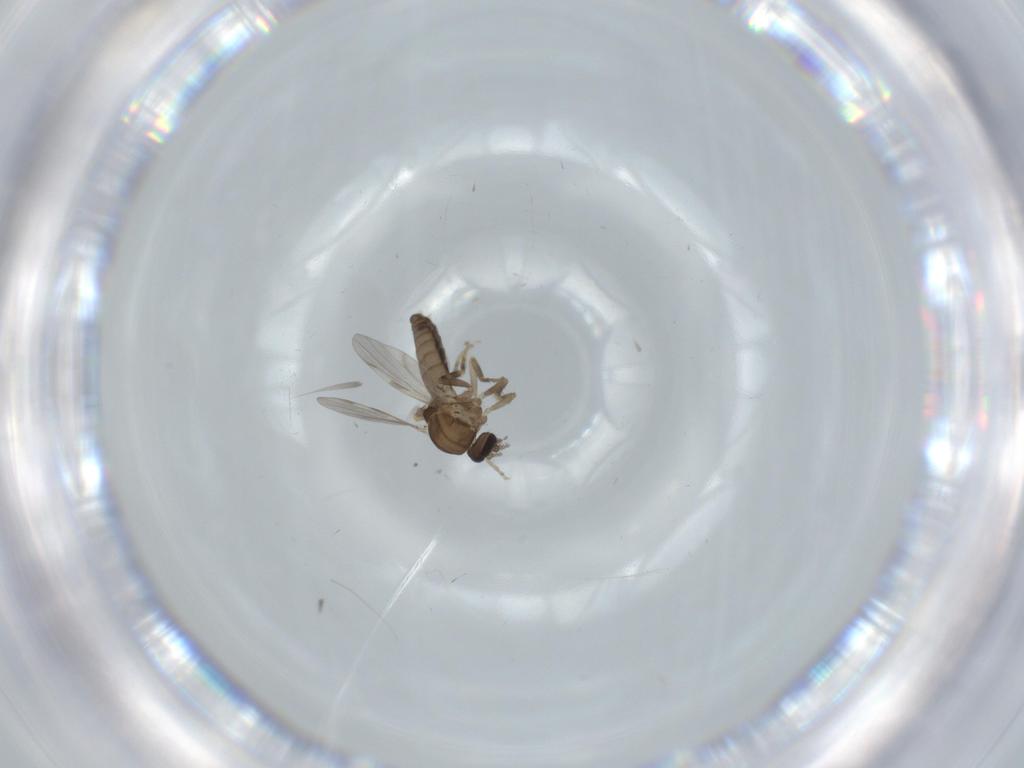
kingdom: Animalia
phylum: Arthropoda
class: Insecta
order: Diptera
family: Ceratopogonidae
